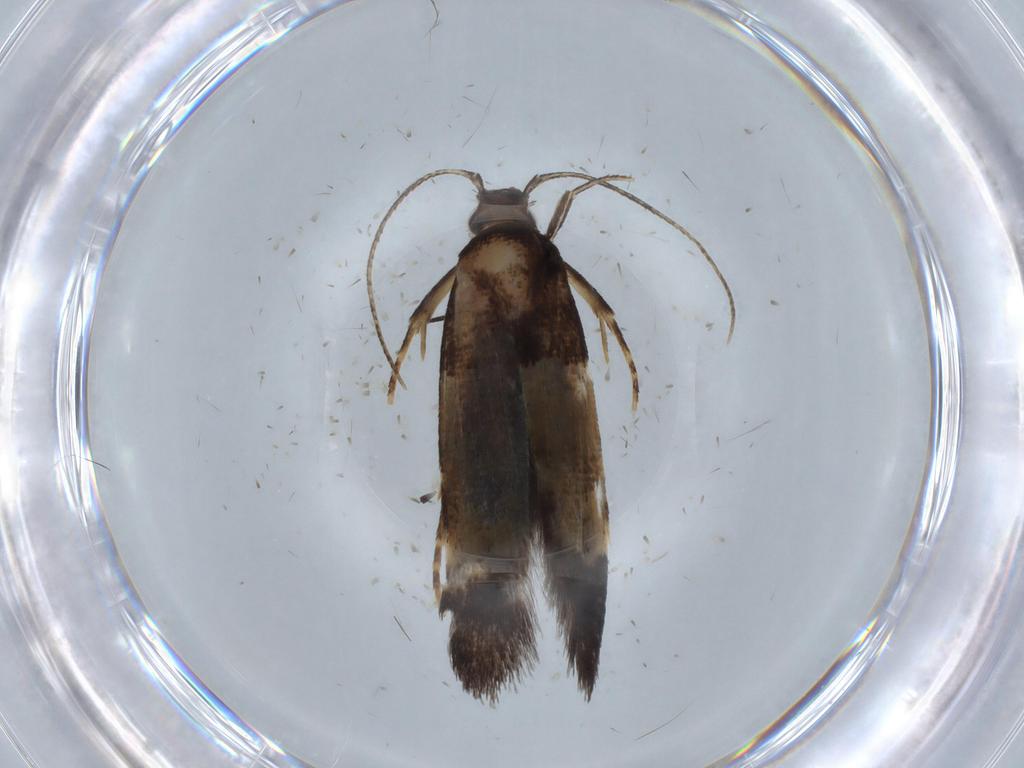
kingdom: Animalia
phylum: Arthropoda
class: Insecta
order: Lepidoptera
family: Cosmopterigidae
